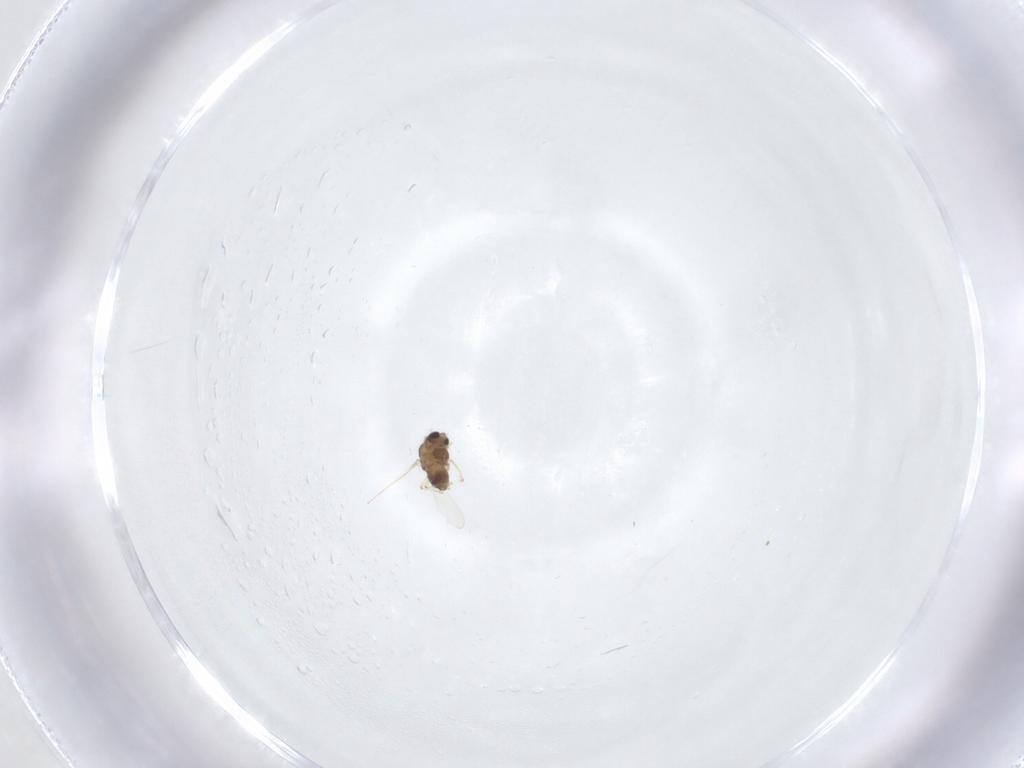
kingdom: Animalia
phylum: Arthropoda
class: Insecta
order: Diptera
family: Chironomidae
